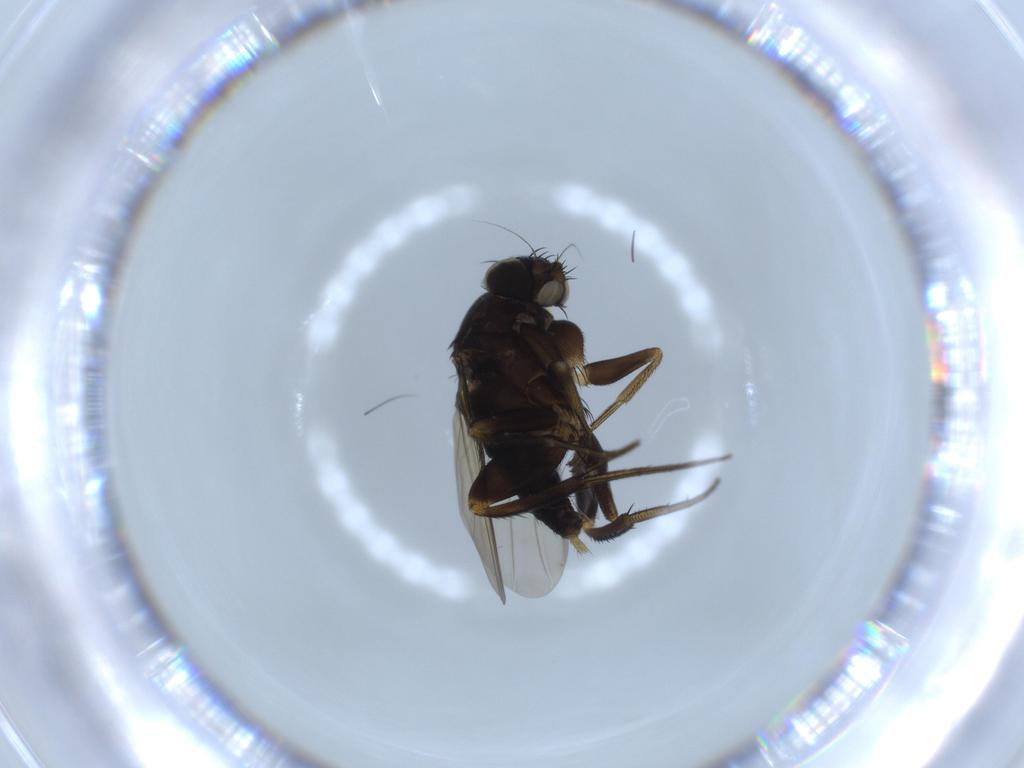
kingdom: Animalia
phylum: Arthropoda
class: Insecta
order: Diptera
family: Phoridae
